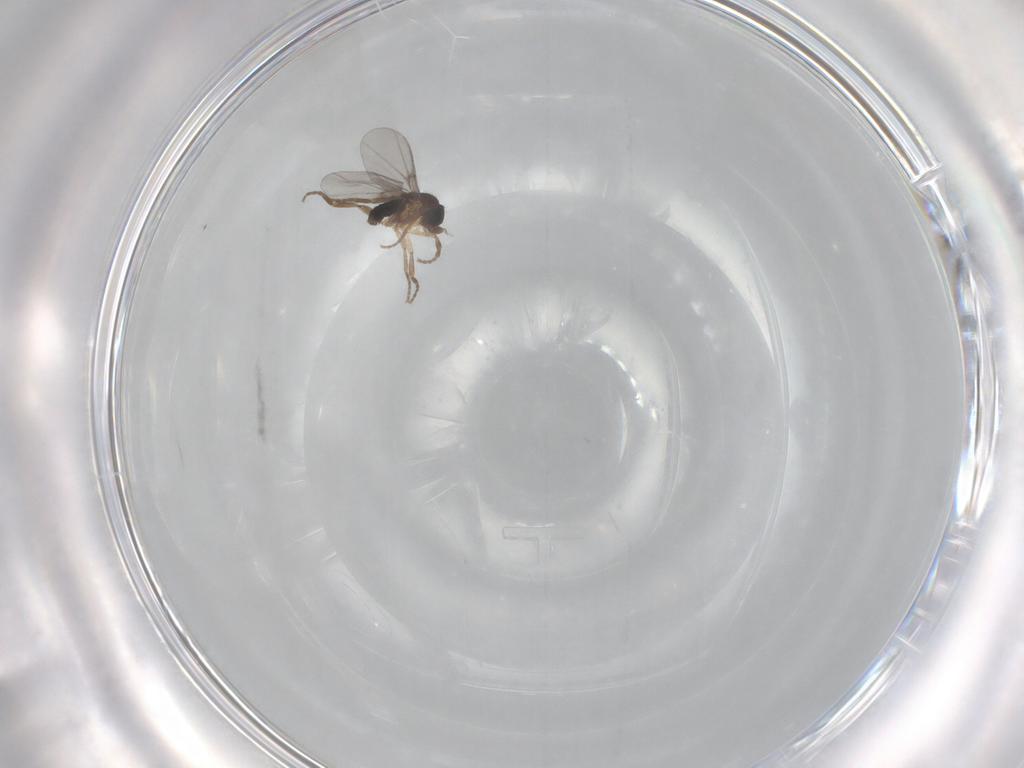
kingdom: Animalia
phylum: Arthropoda
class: Insecta
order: Diptera
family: Phoridae
